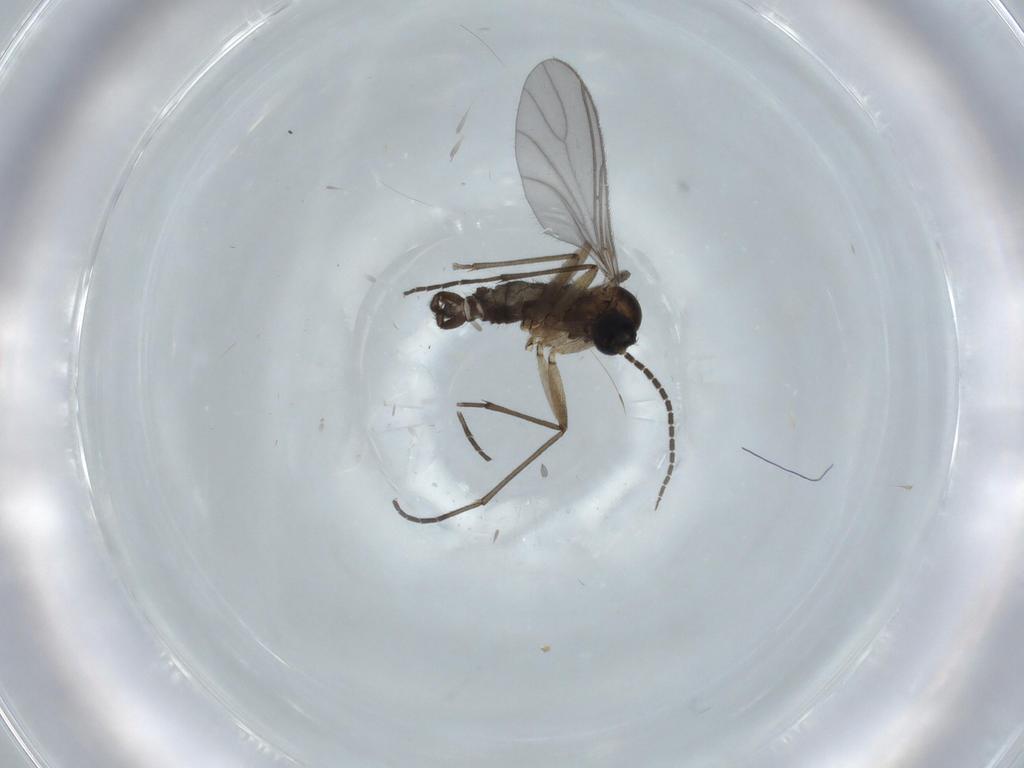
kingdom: Animalia
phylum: Arthropoda
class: Insecta
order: Diptera
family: Sciaridae
